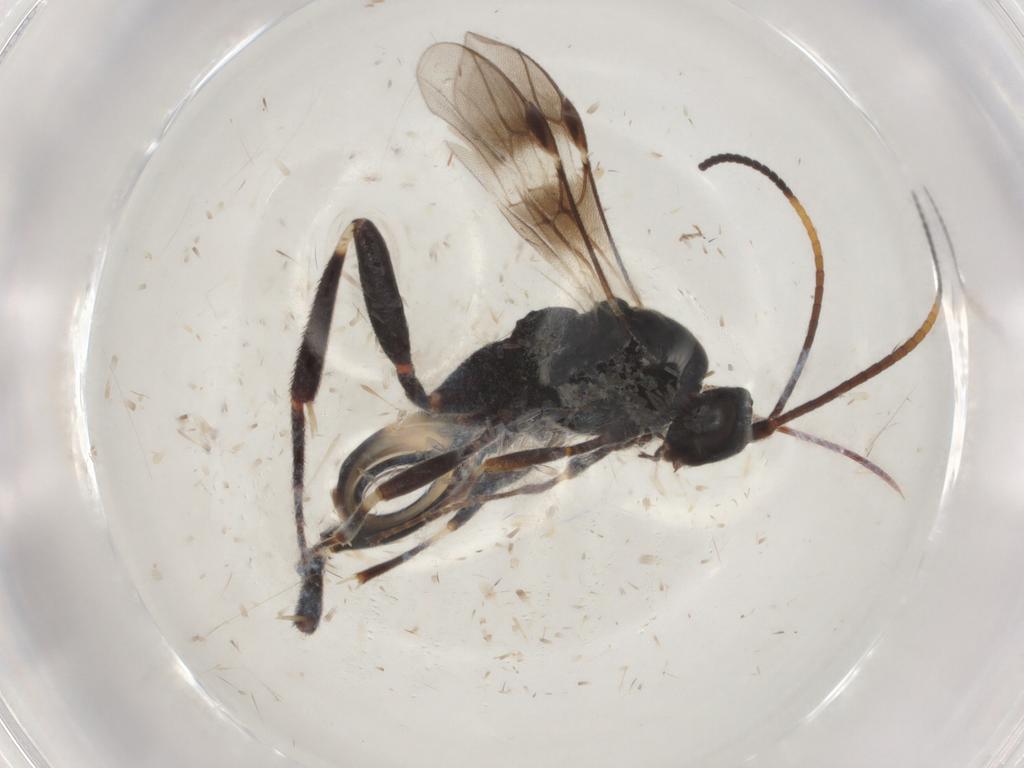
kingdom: Animalia
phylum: Arthropoda
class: Insecta
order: Hymenoptera
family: Braconidae
